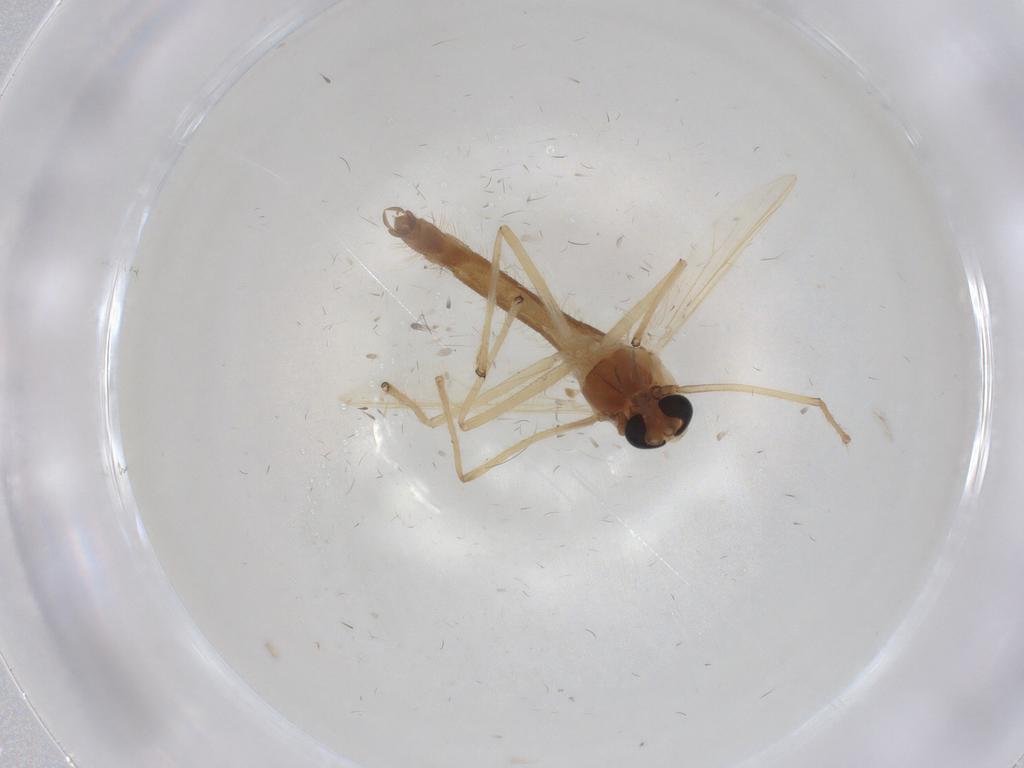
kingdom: Animalia
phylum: Arthropoda
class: Insecta
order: Diptera
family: Chironomidae
